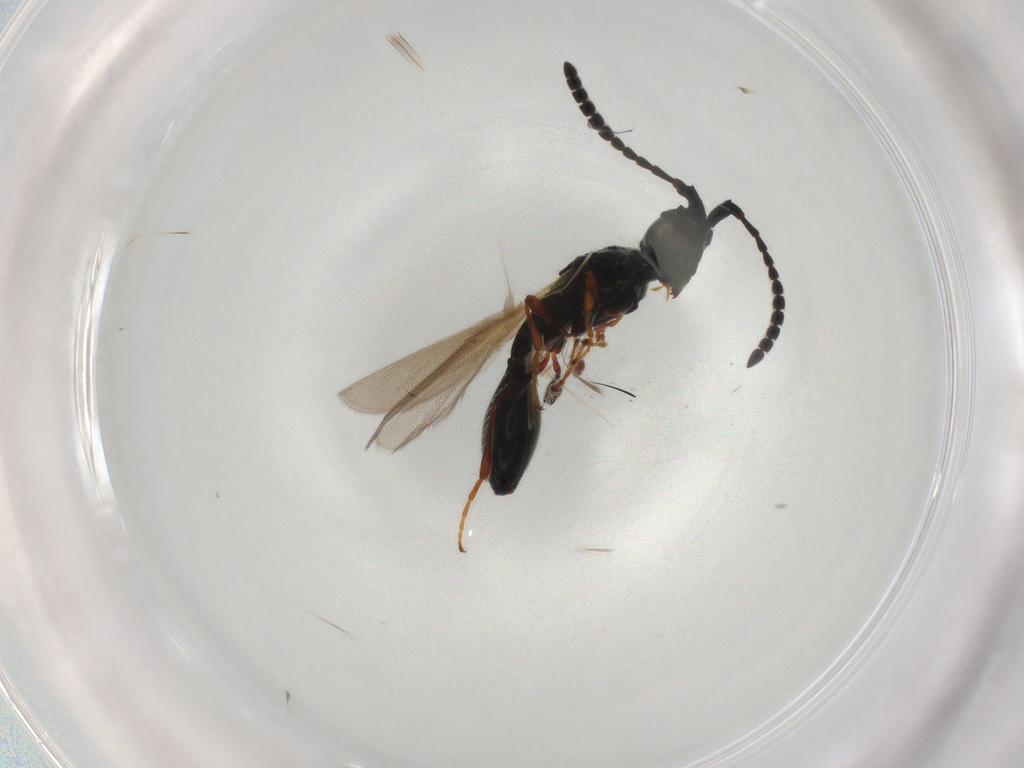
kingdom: Animalia
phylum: Arthropoda
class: Insecta
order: Hymenoptera
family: Diapriidae
